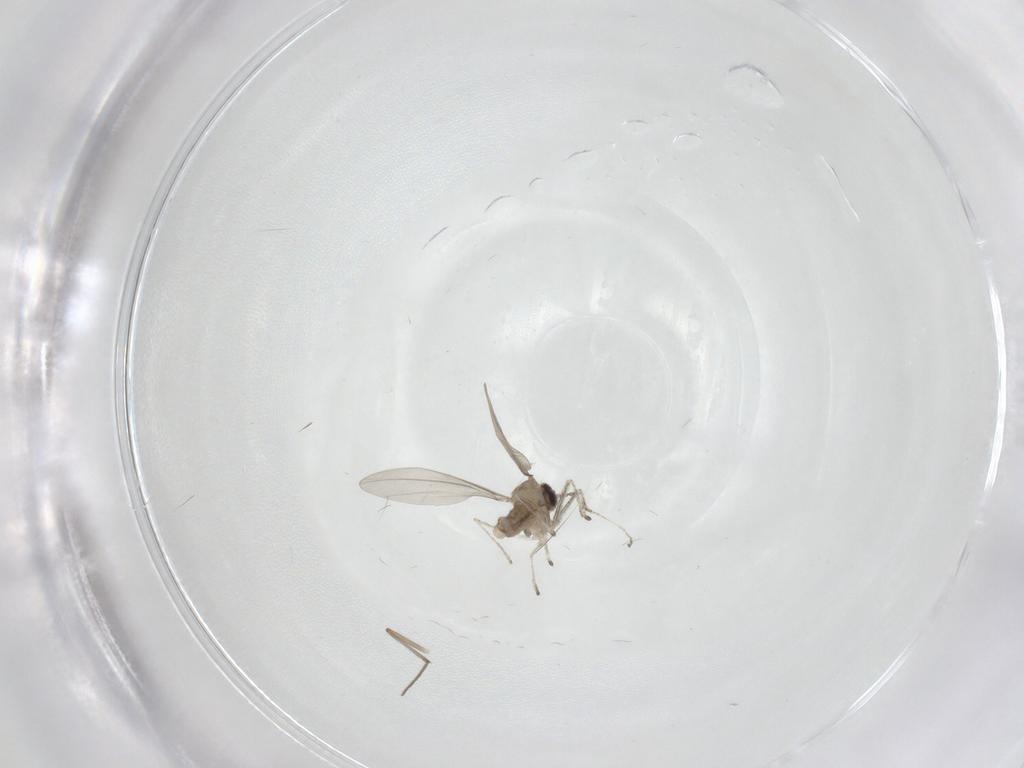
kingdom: Animalia
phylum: Arthropoda
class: Insecta
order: Diptera
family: Cecidomyiidae
